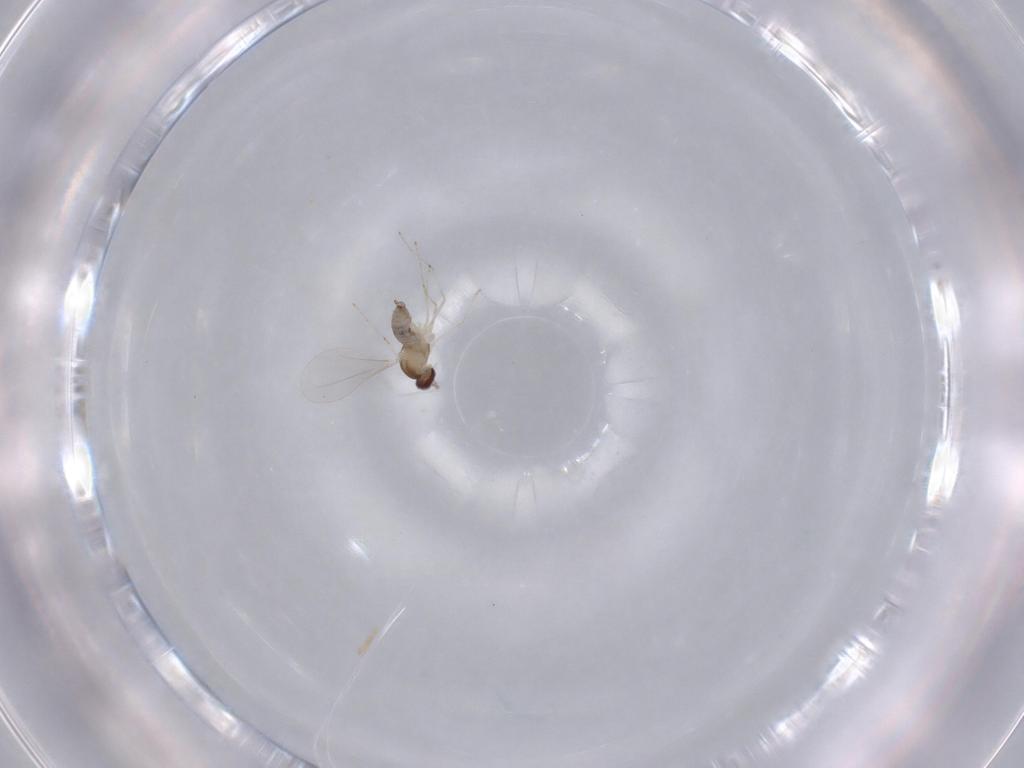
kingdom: Animalia
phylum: Arthropoda
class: Insecta
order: Diptera
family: Cecidomyiidae
